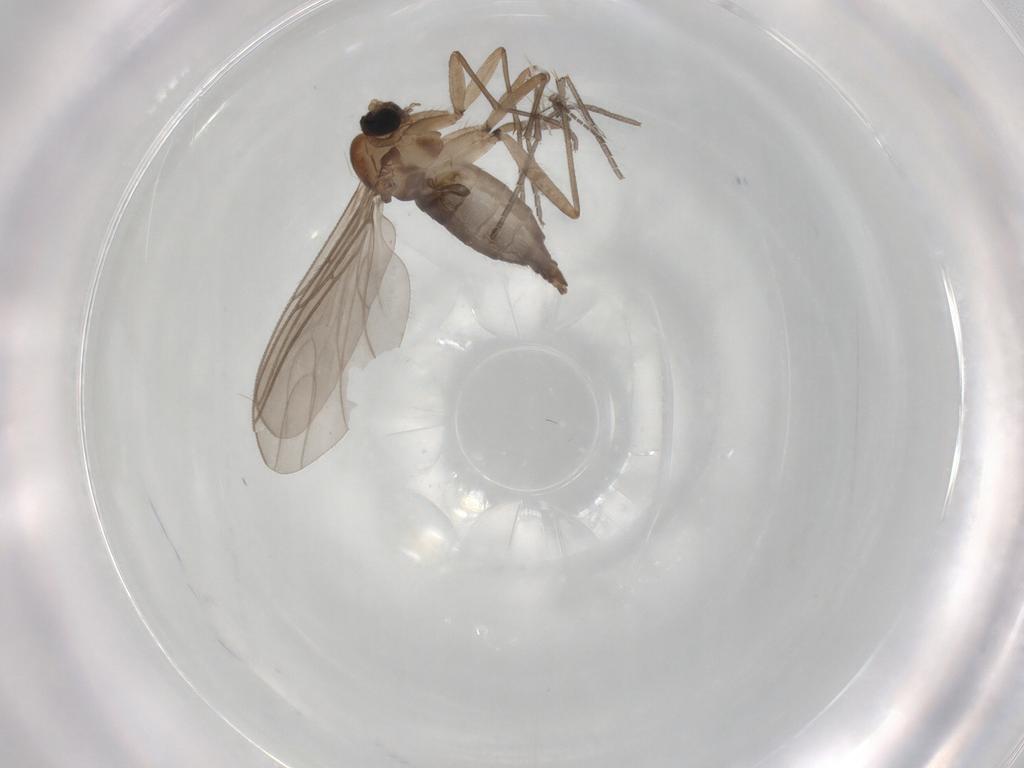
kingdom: Animalia
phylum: Arthropoda
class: Insecta
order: Diptera
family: Sciaridae
